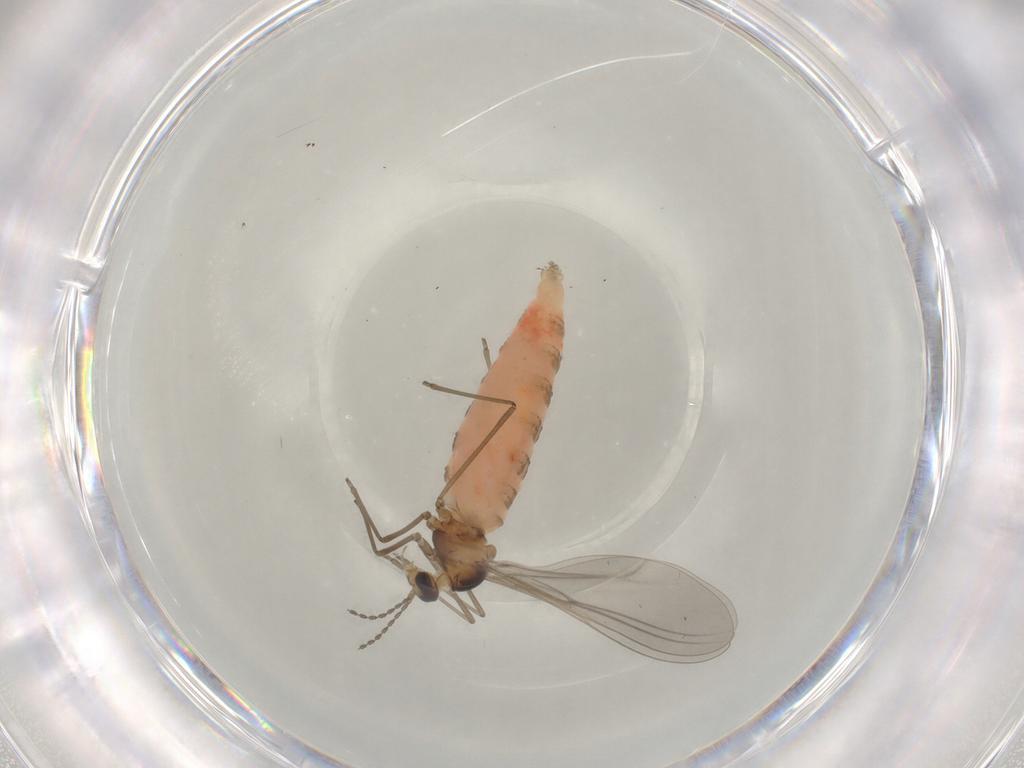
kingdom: Animalia
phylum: Arthropoda
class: Insecta
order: Diptera
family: Cecidomyiidae
